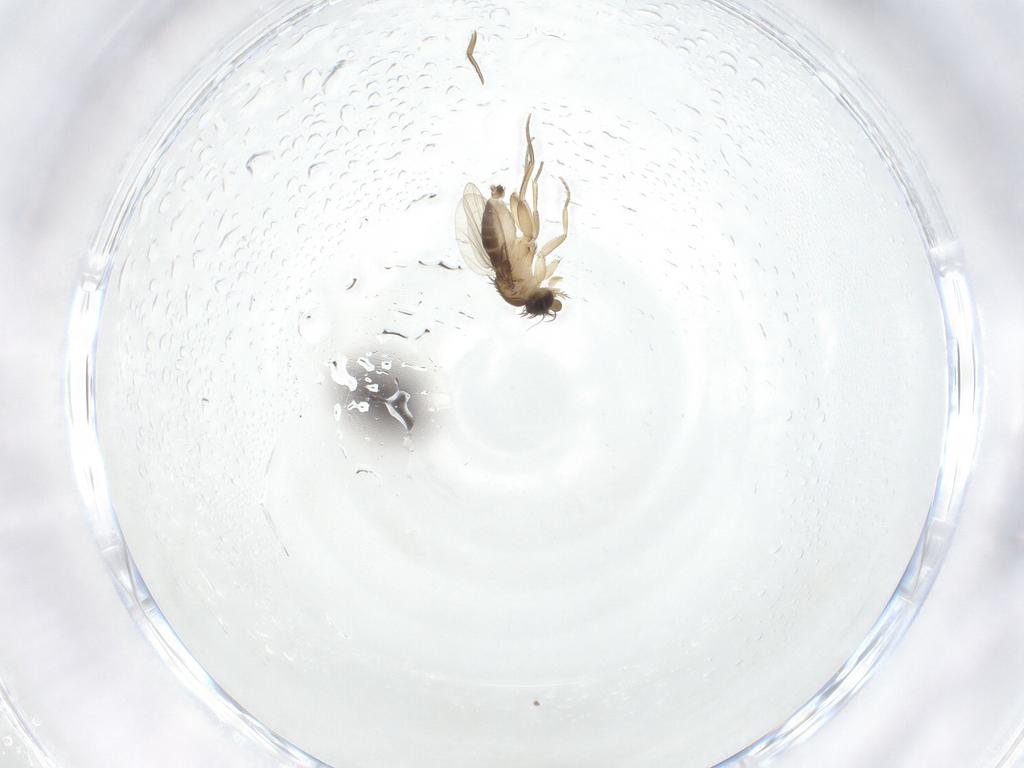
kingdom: Animalia
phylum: Arthropoda
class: Insecta
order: Diptera
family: Phoridae
